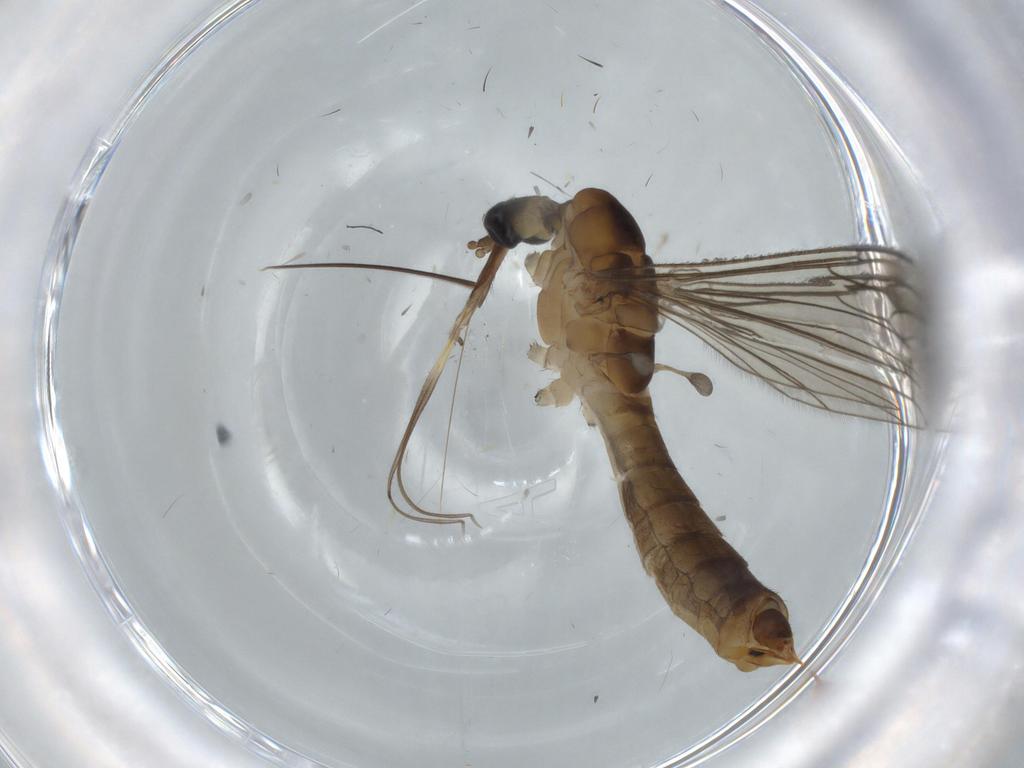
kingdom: Animalia
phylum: Arthropoda
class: Insecta
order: Diptera
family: Limoniidae
